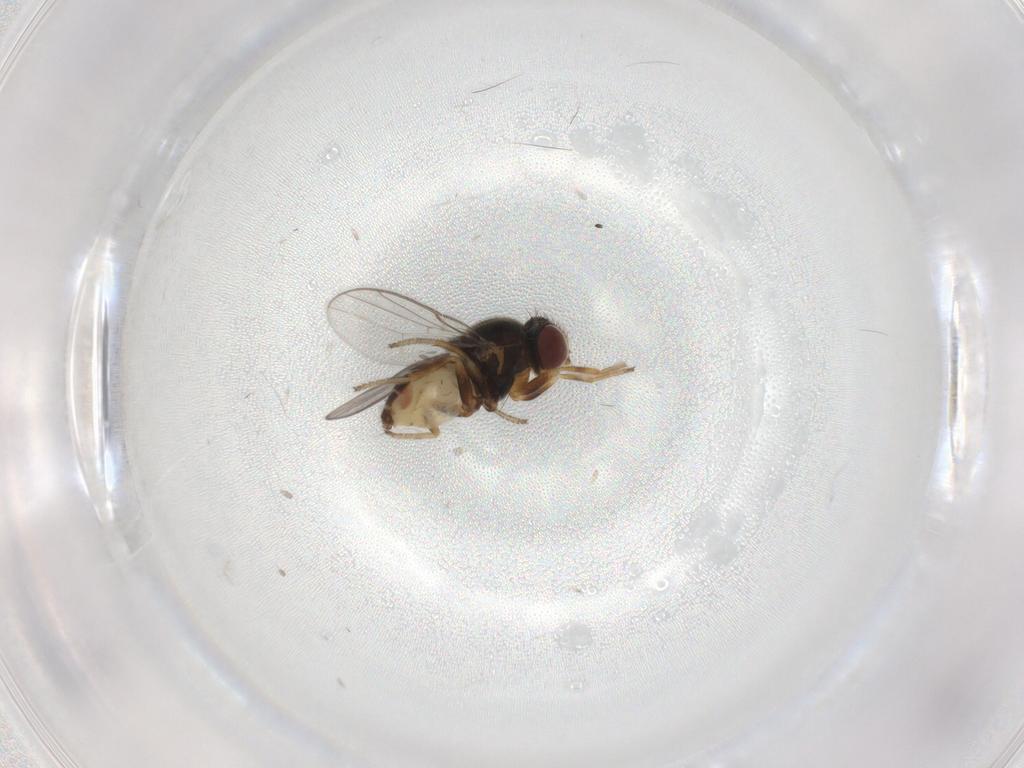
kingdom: Animalia
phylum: Arthropoda
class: Insecta
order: Diptera
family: Chloropidae
